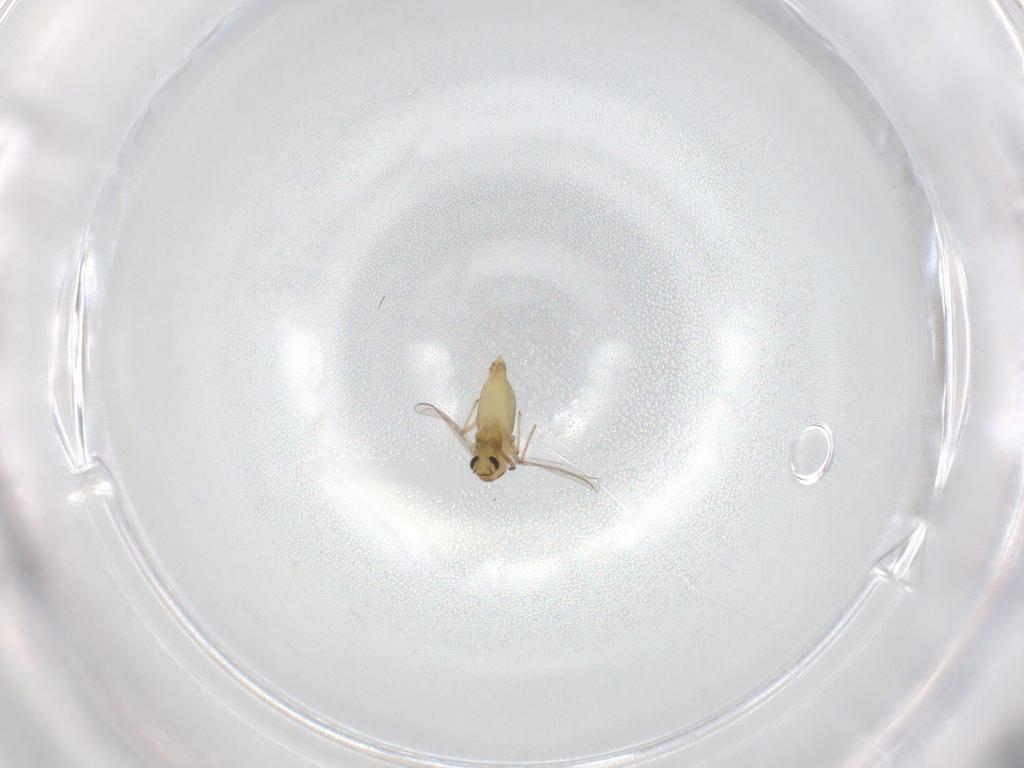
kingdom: Animalia
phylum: Arthropoda
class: Insecta
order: Diptera
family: Chironomidae
